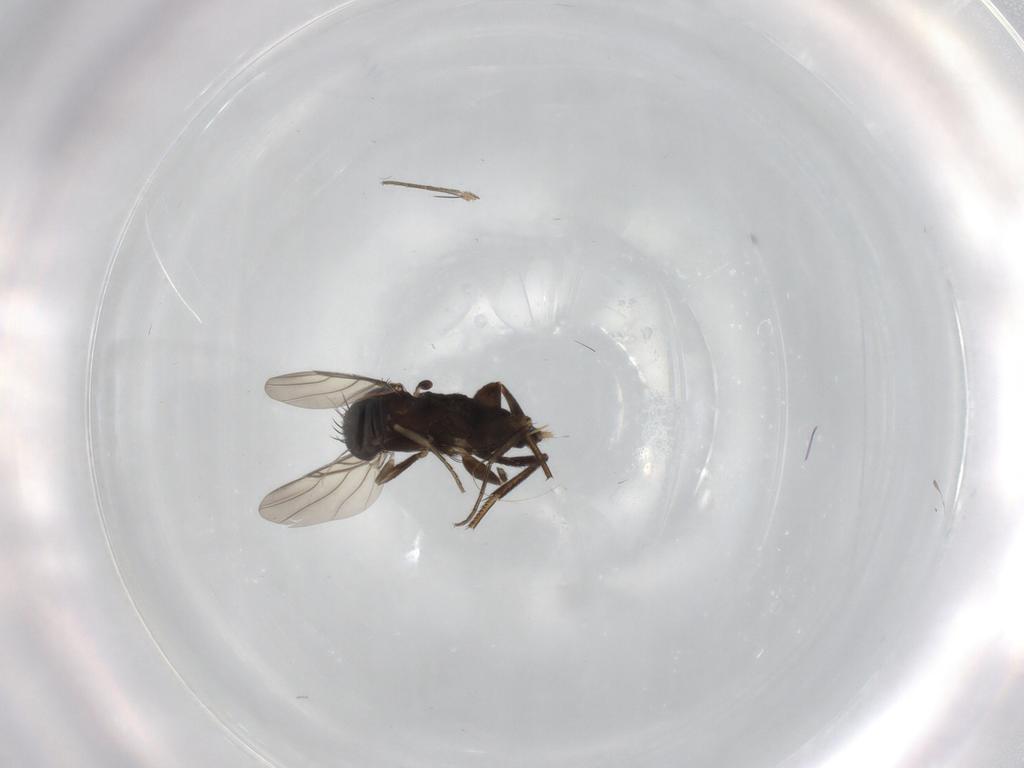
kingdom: Animalia
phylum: Arthropoda
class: Insecta
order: Diptera
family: Phoridae
